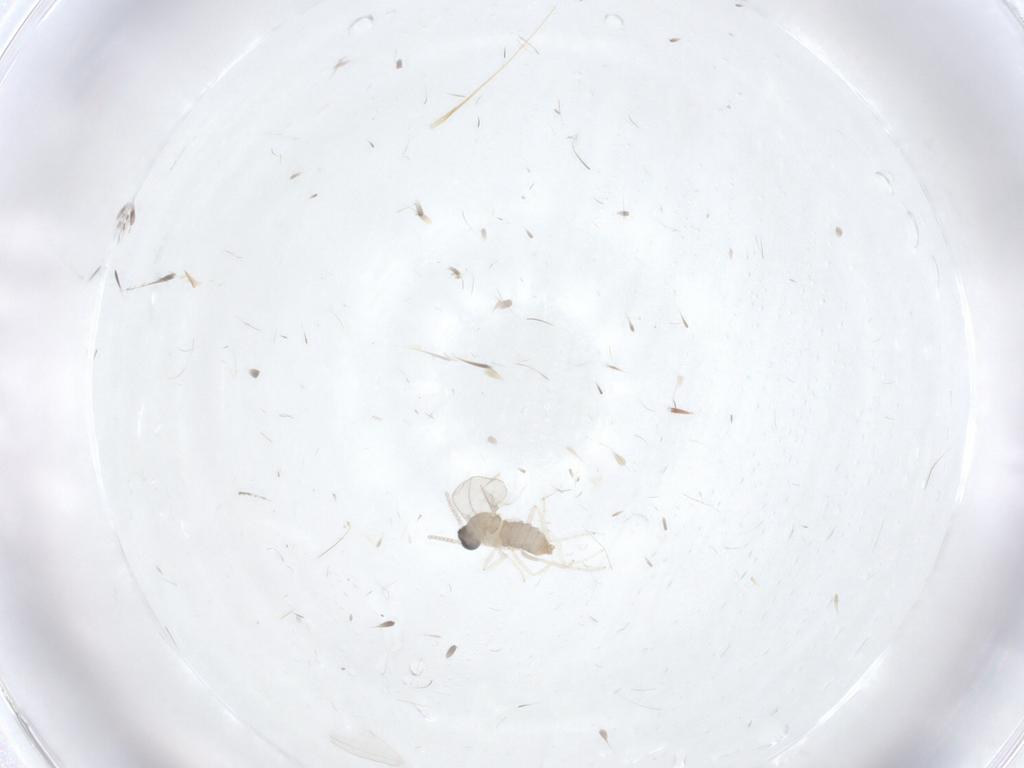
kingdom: Animalia
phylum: Arthropoda
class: Insecta
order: Diptera
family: Cecidomyiidae
